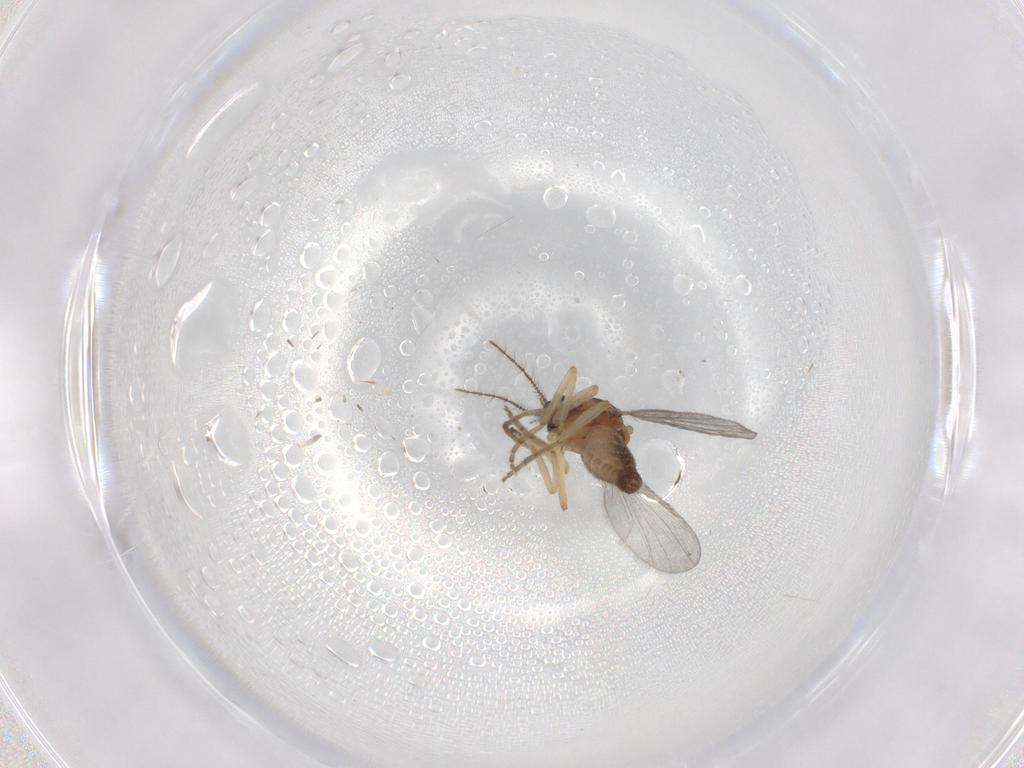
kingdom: Animalia
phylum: Arthropoda
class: Insecta
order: Diptera
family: Ceratopogonidae
